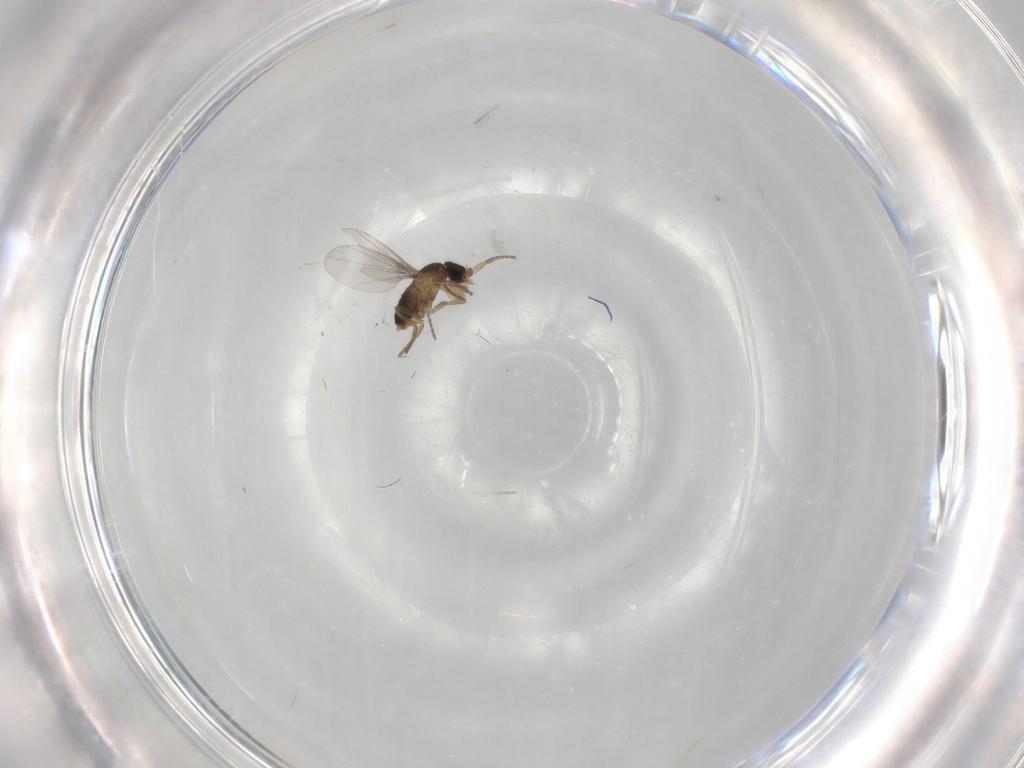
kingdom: Animalia
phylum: Arthropoda
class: Insecta
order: Diptera
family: Phoridae
